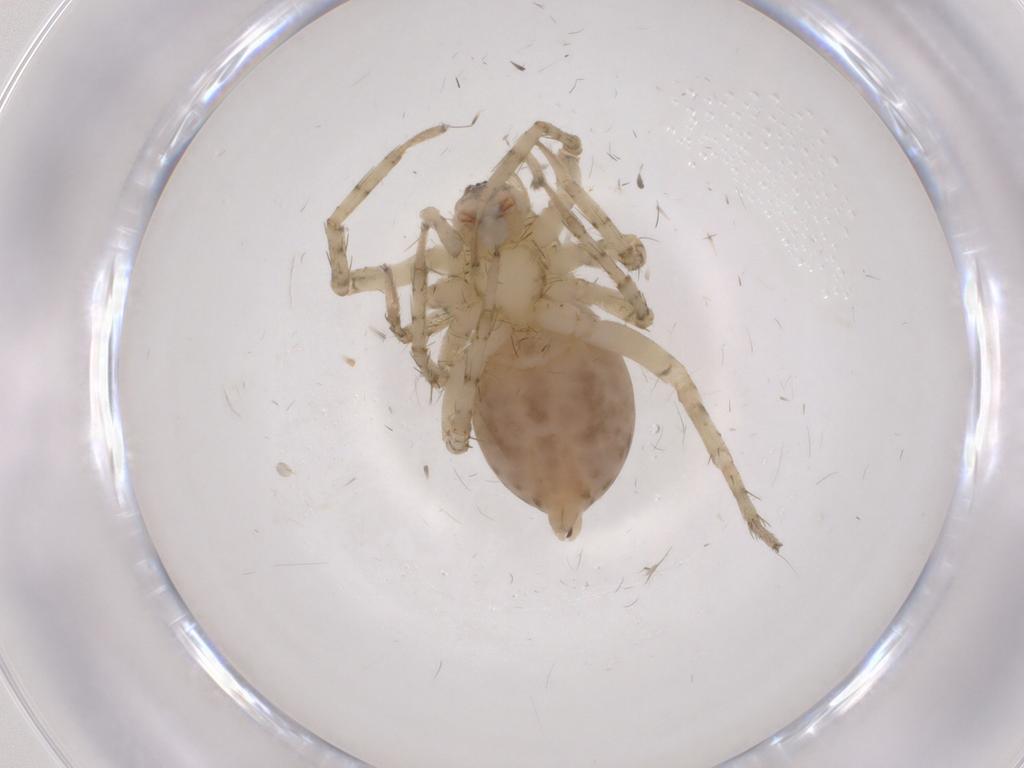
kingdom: Animalia
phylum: Arthropoda
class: Arachnida
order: Araneae
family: Anyphaenidae
